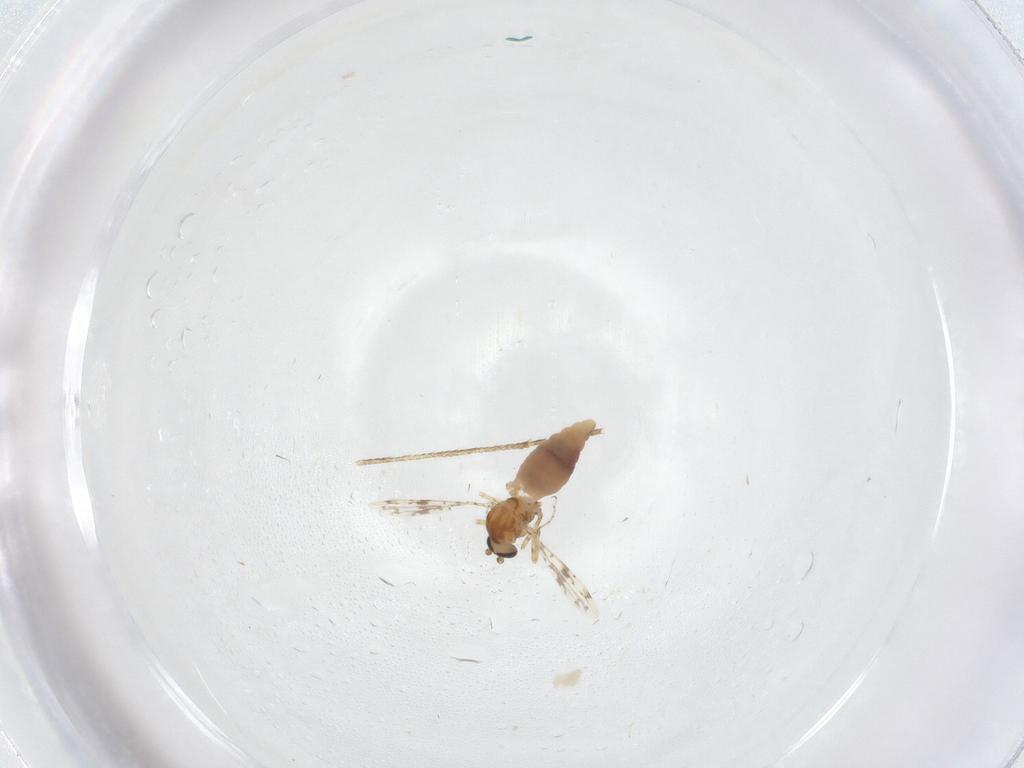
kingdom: Animalia
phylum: Arthropoda
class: Insecta
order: Diptera
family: Ceratopogonidae
